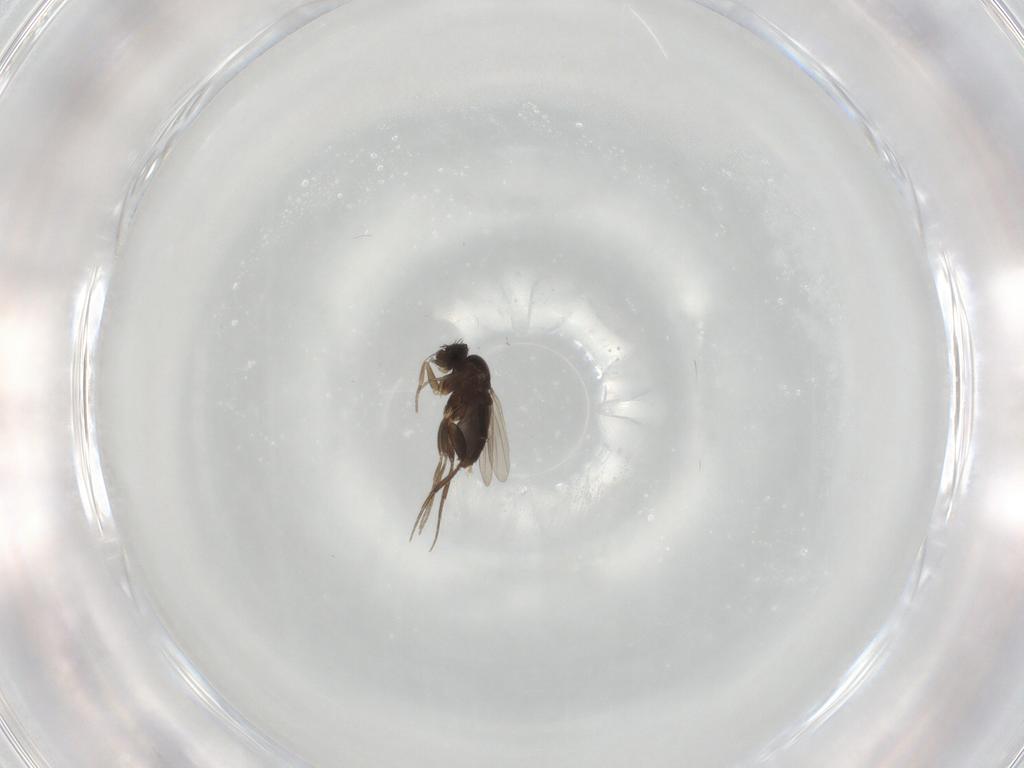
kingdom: Animalia
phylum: Arthropoda
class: Insecta
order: Diptera
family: Phoridae
